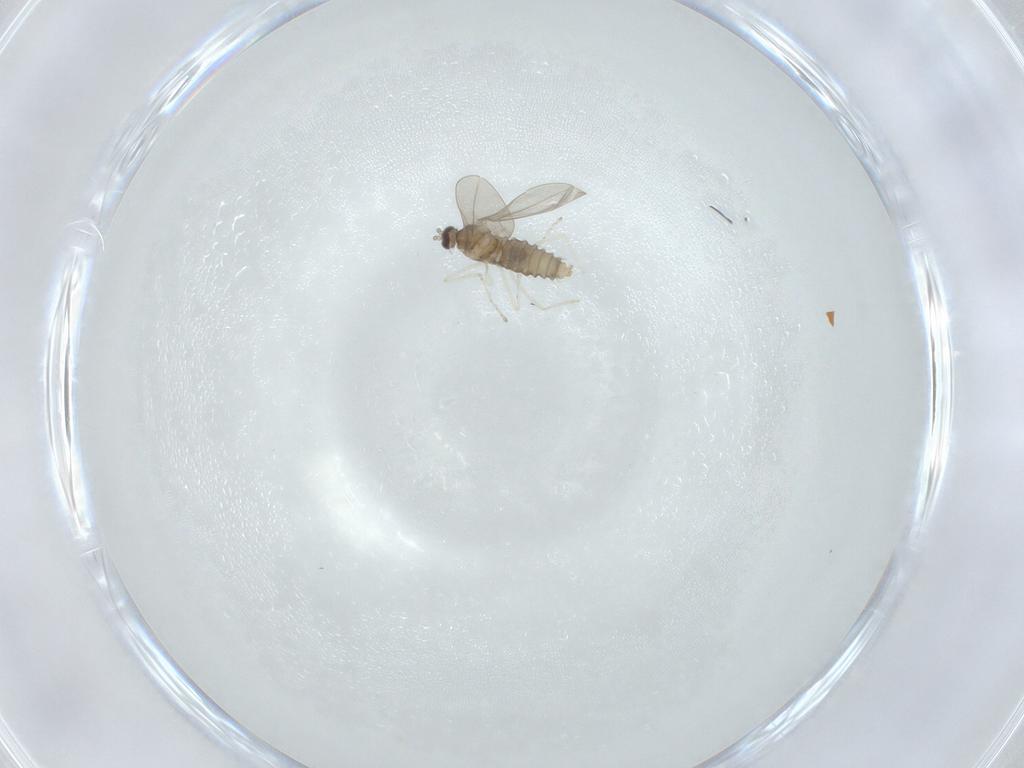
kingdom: Animalia
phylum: Arthropoda
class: Insecta
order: Diptera
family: Cecidomyiidae
